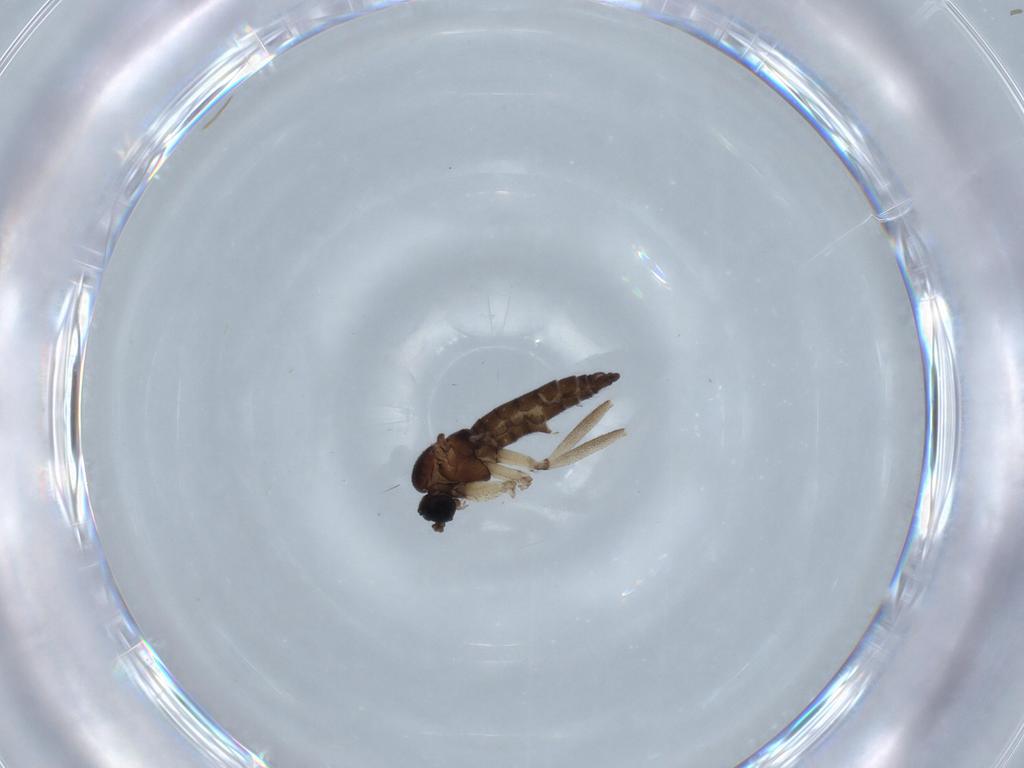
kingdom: Animalia
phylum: Arthropoda
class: Insecta
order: Diptera
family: Sciaridae
